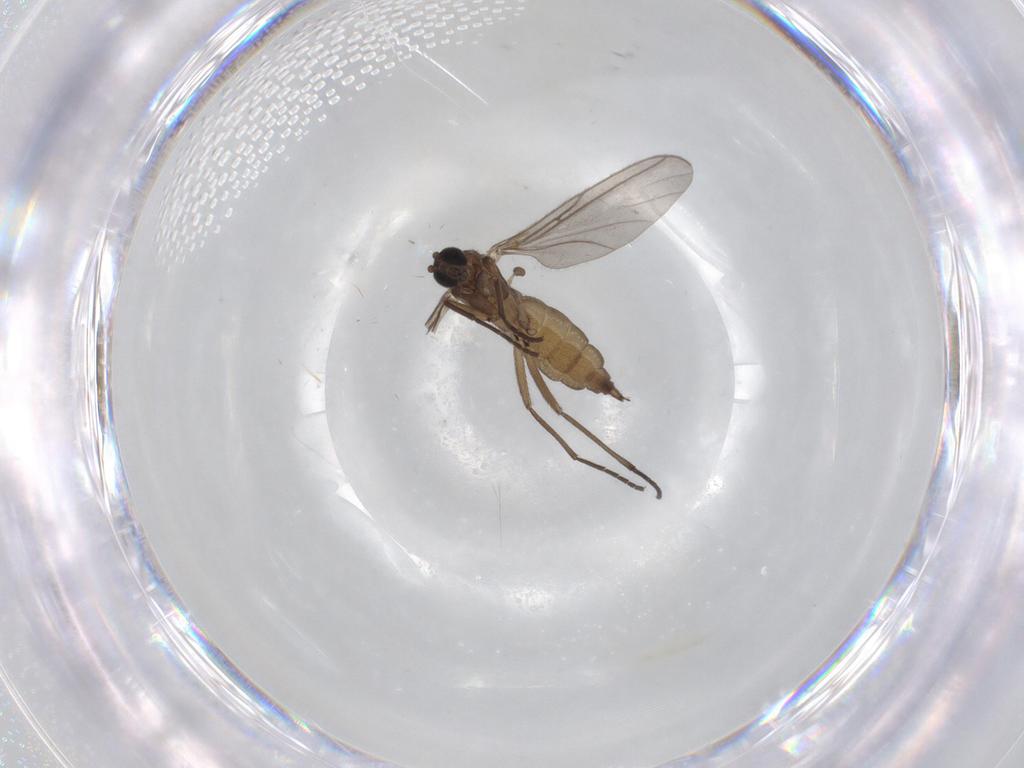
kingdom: Animalia
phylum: Arthropoda
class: Insecta
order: Diptera
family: Sciaridae
